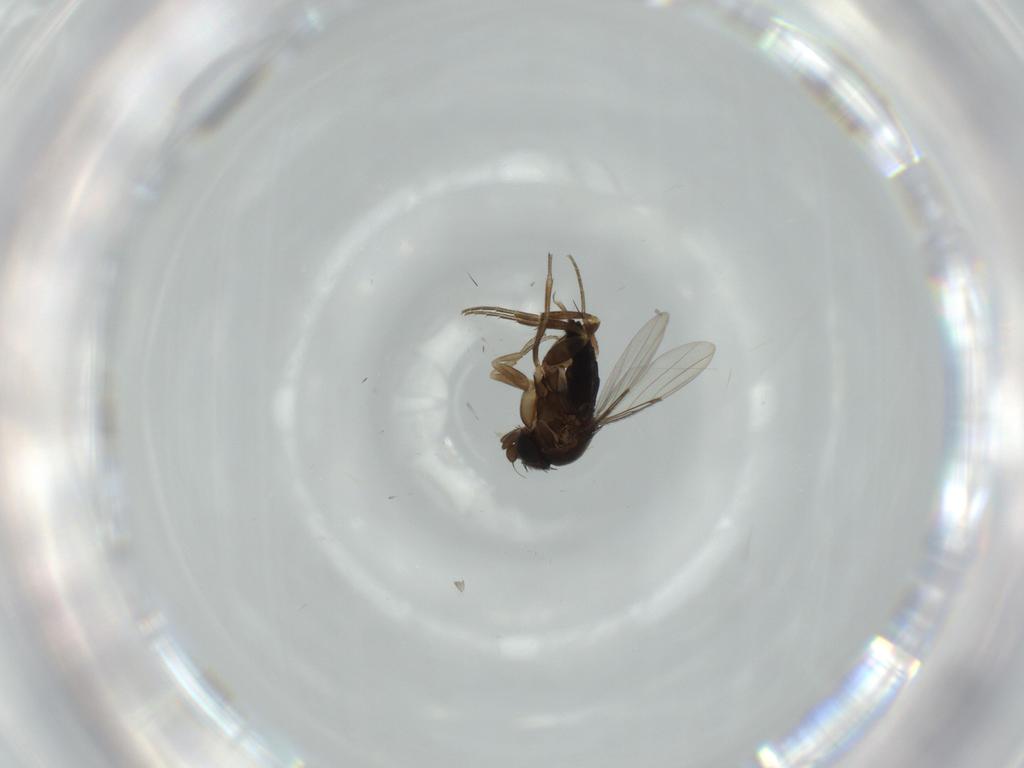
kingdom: Animalia
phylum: Arthropoda
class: Insecta
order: Diptera
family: Phoridae
